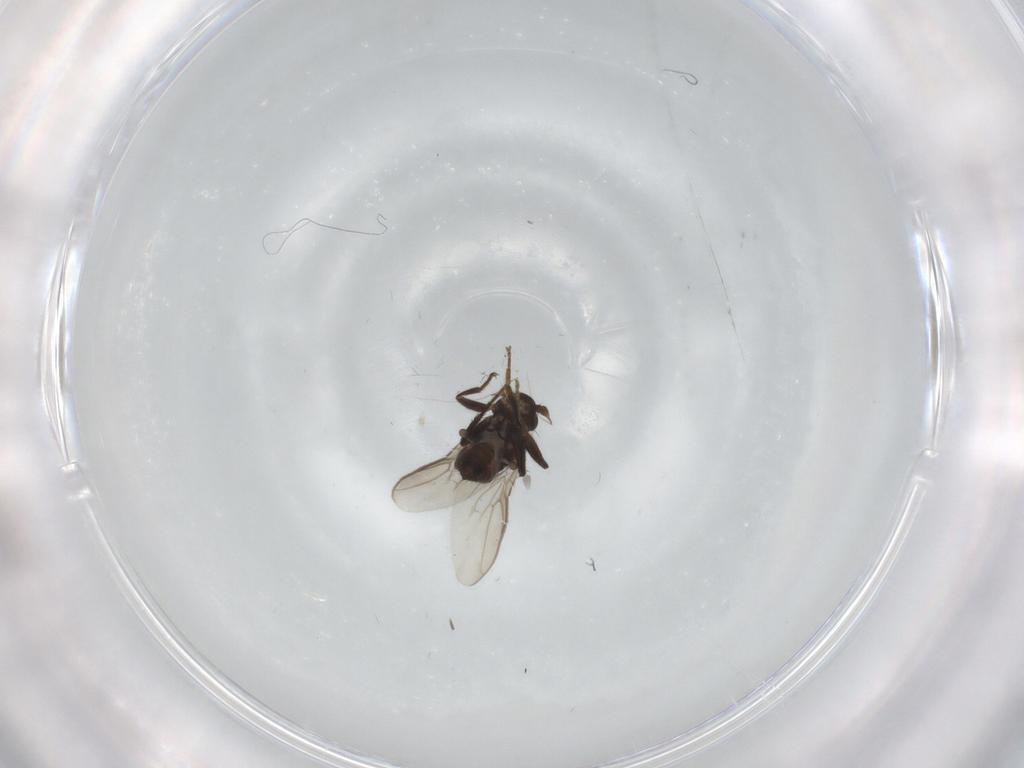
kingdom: Animalia
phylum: Arthropoda
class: Insecta
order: Diptera
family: Sphaeroceridae
